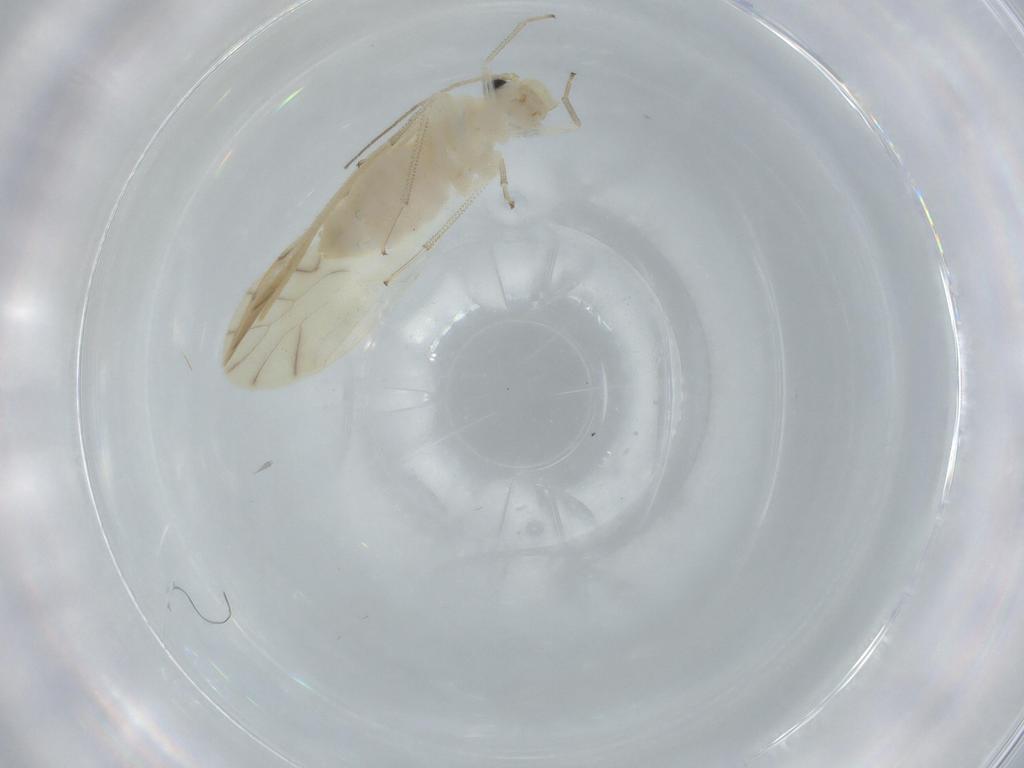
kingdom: Animalia
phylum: Arthropoda
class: Insecta
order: Psocodea
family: Caeciliusidae
